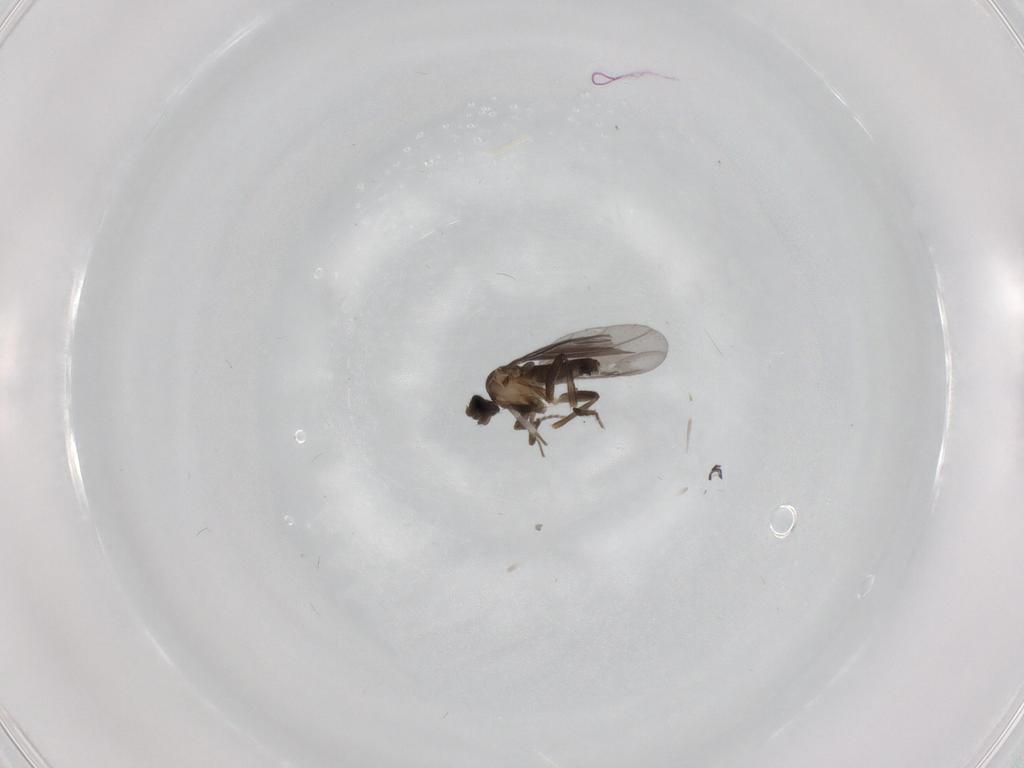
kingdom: Animalia
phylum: Arthropoda
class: Insecta
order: Diptera
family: Phoridae
